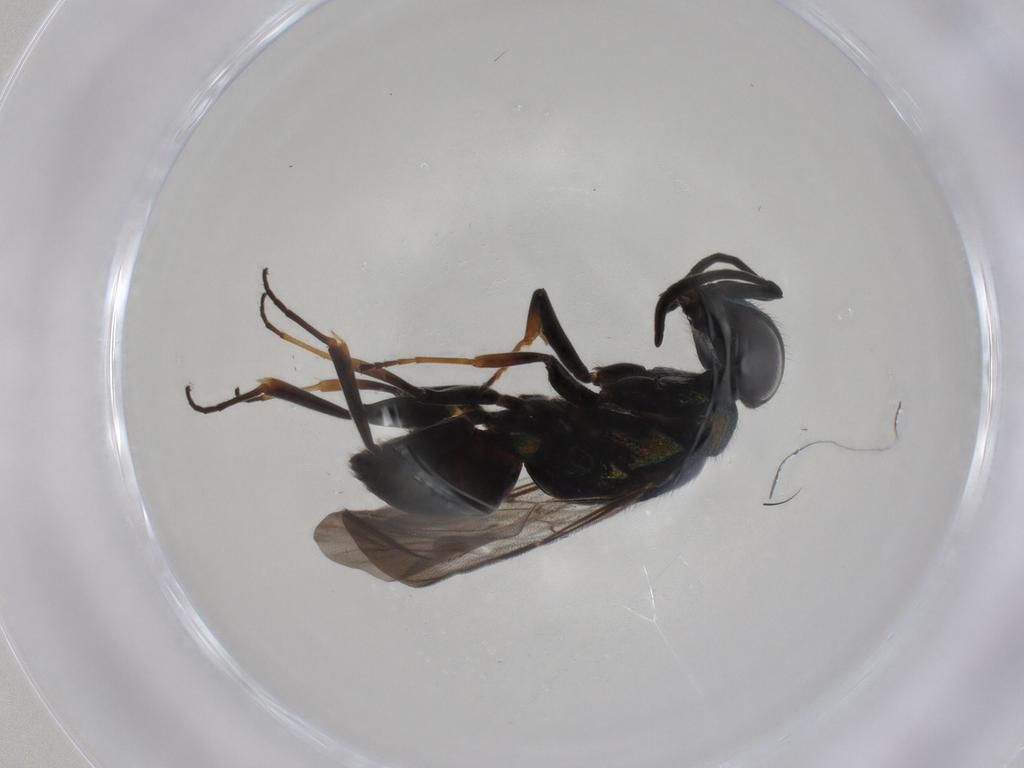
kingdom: Animalia
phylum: Arthropoda
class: Insecta
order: Hymenoptera
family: Chrysididae
